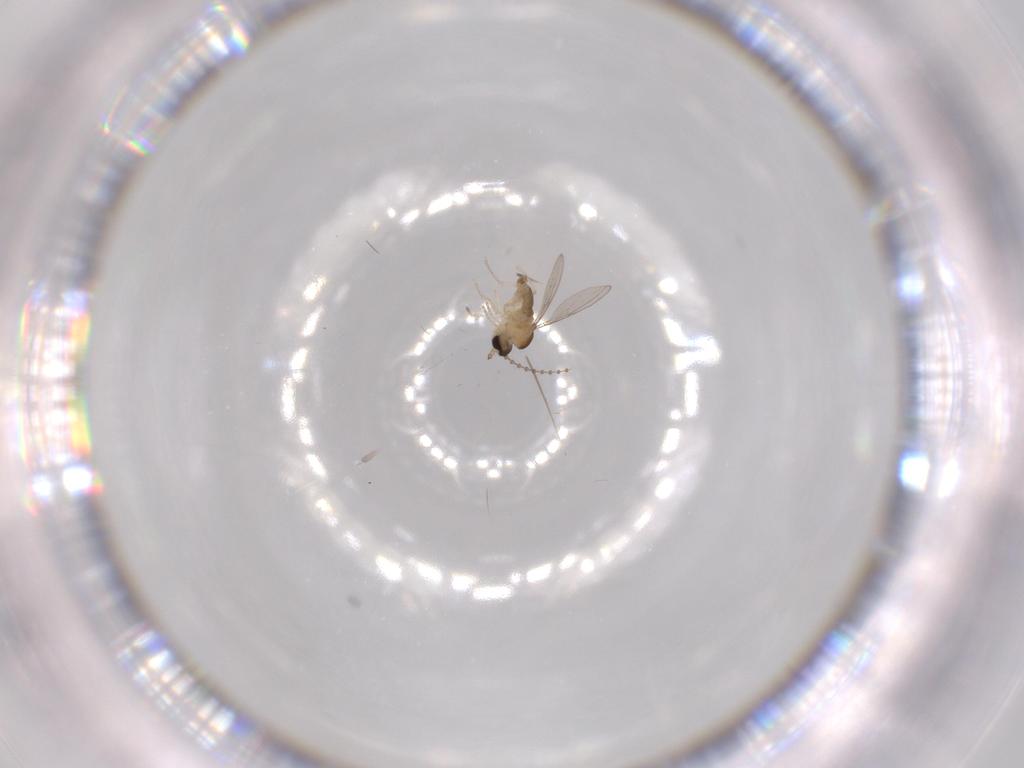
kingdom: Animalia
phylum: Arthropoda
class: Insecta
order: Diptera
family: Cecidomyiidae
